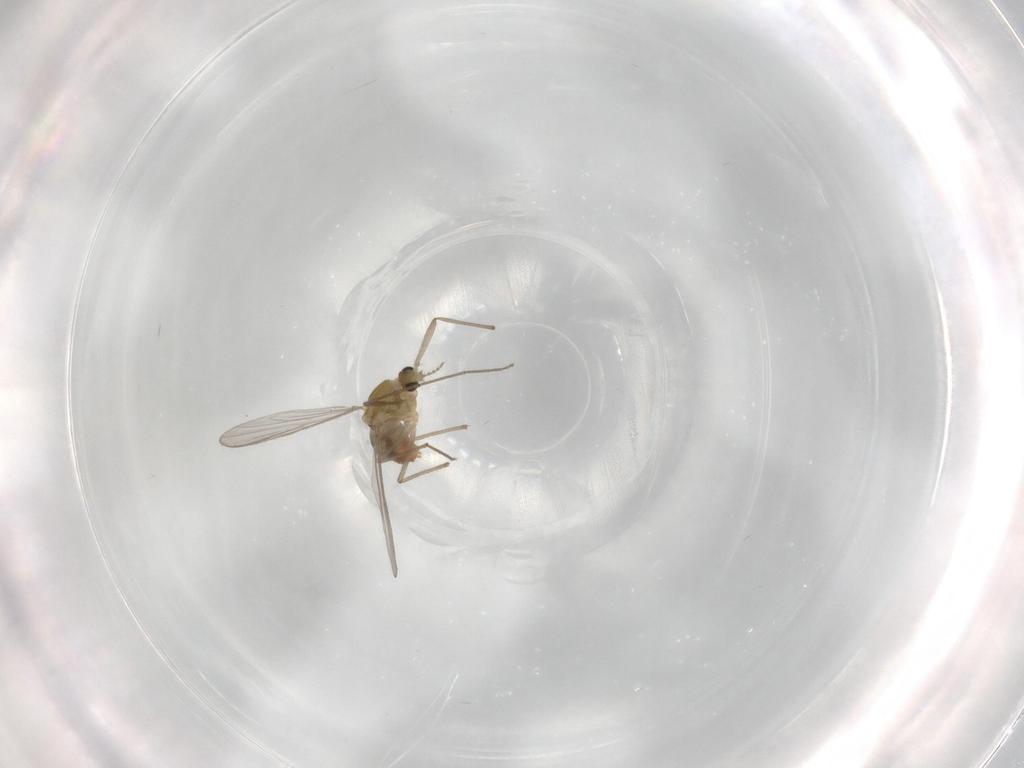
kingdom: Animalia
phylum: Arthropoda
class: Insecta
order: Diptera
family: Chironomidae
